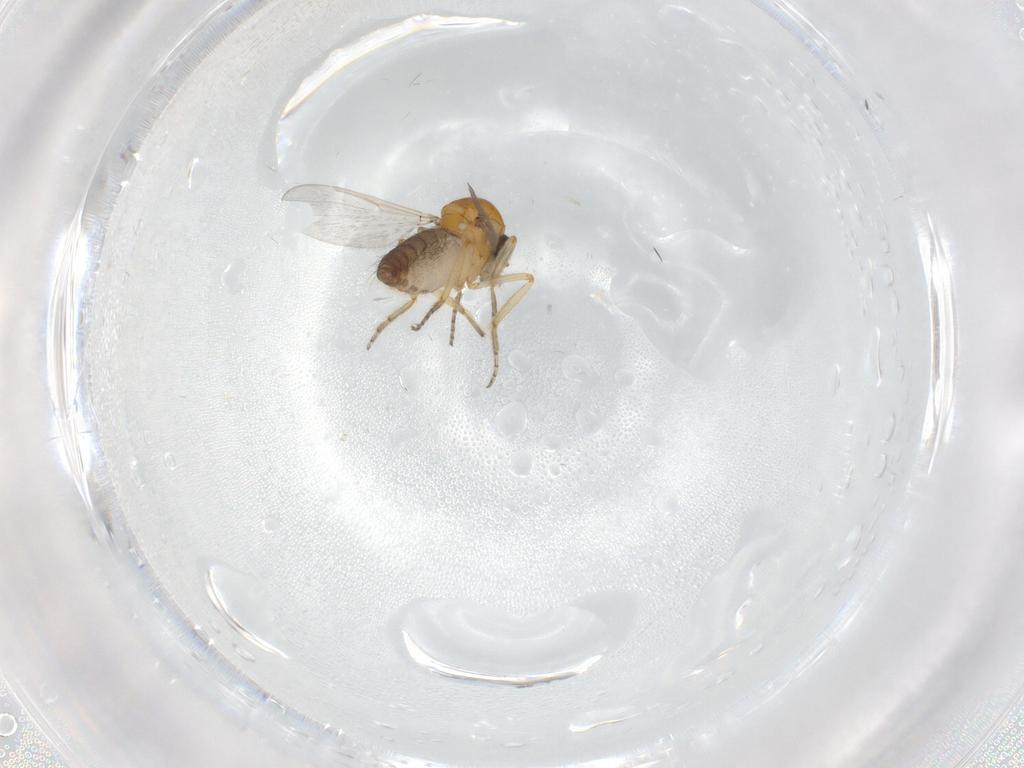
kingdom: Animalia
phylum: Arthropoda
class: Insecta
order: Diptera
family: Ceratopogonidae
